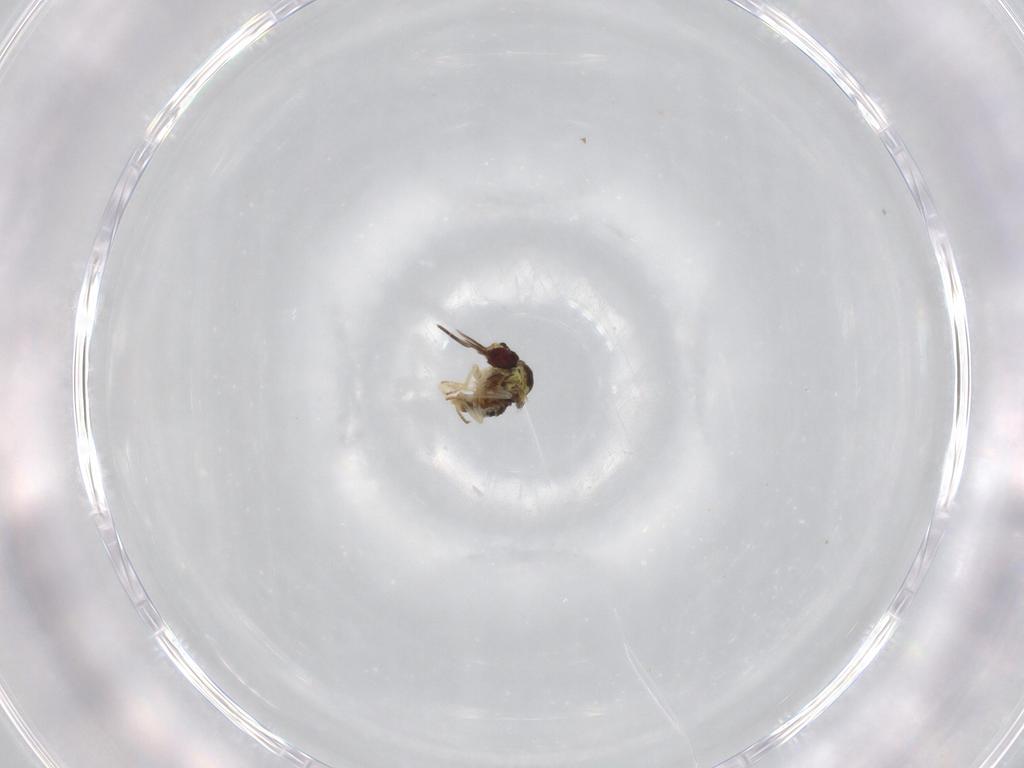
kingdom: Animalia
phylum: Arthropoda
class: Insecta
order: Diptera
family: Bombyliidae
